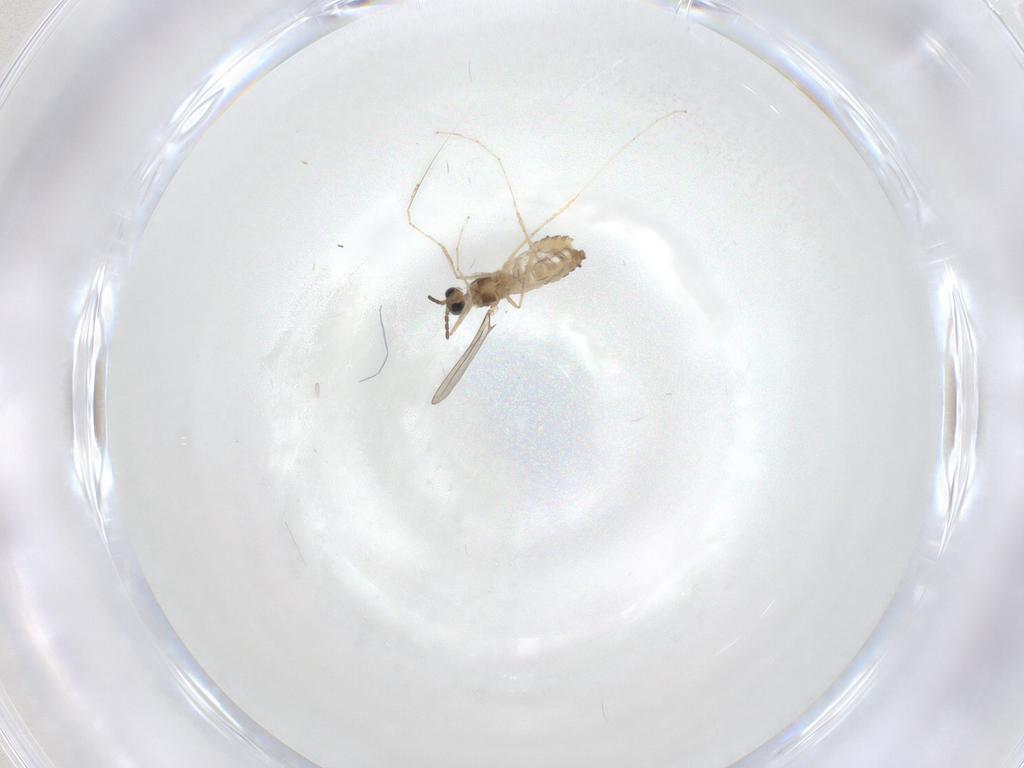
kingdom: Animalia
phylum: Arthropoda
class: Insecta
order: Diptera
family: Cecidomyiidae
